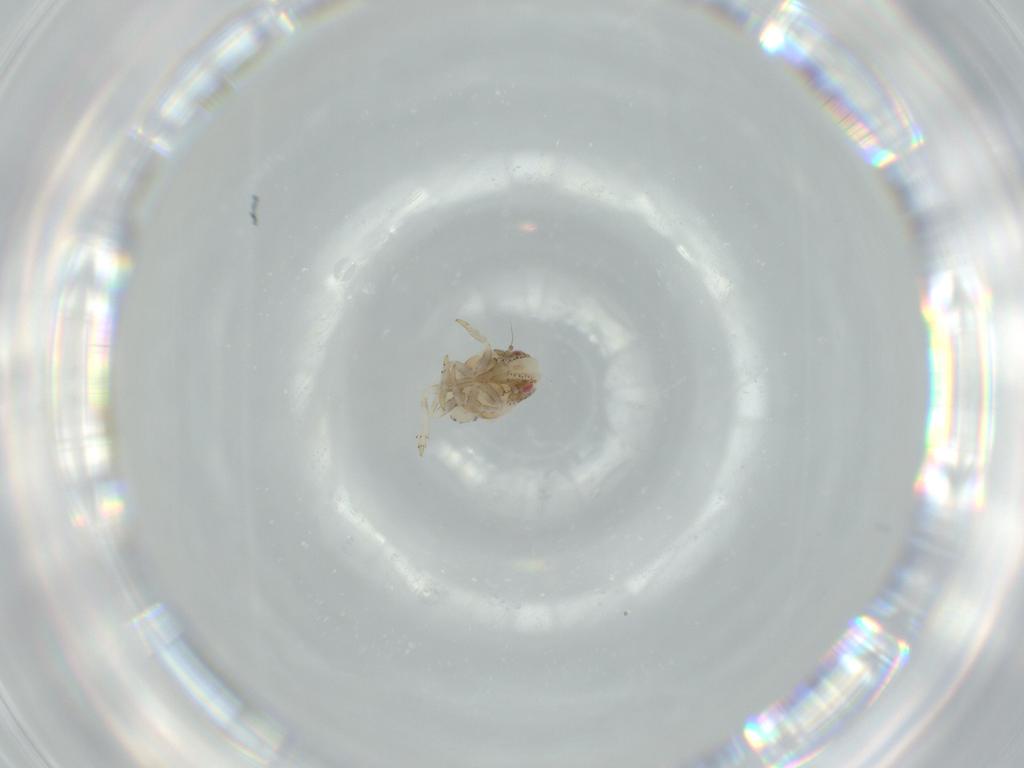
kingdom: Animalia
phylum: Arthropoda
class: Insecta
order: Hemiptera
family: Acanaloniidae
